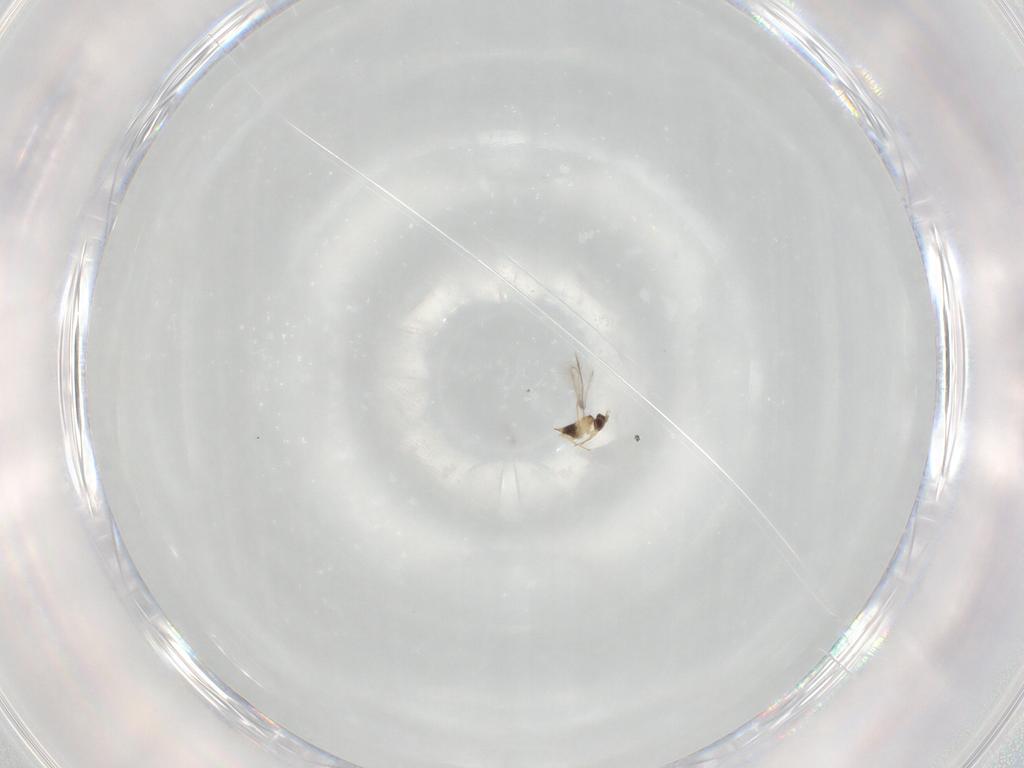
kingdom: Animalia
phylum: Arthropoda
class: Insecta
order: Hymenoptera
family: Mymaridae
